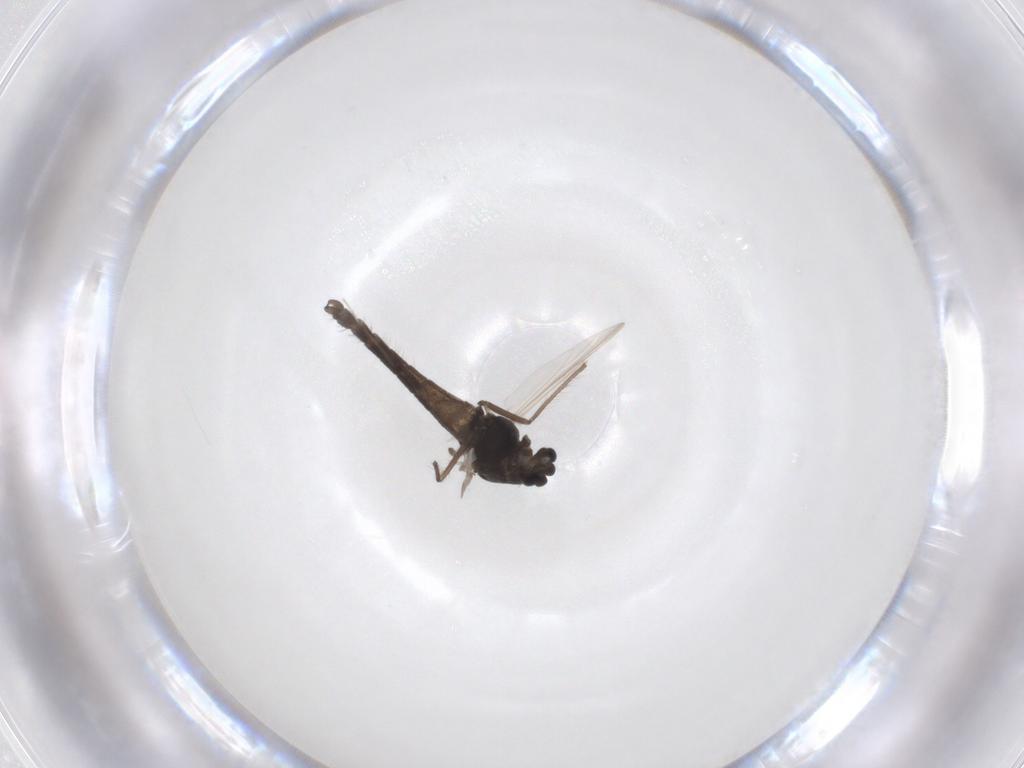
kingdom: Animalia
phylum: Arthropoda
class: Insecta
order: Diptera
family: Chironomidae
